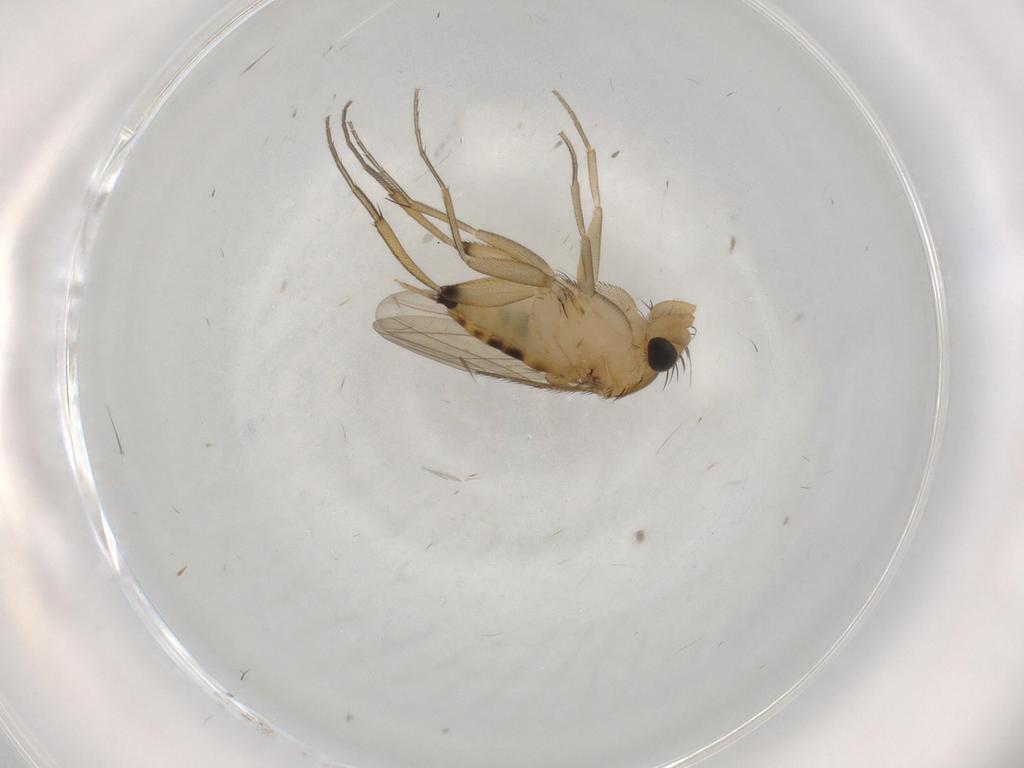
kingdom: Animalia
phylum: Arthropoda
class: Insecta
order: Diptera
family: Phoridae
